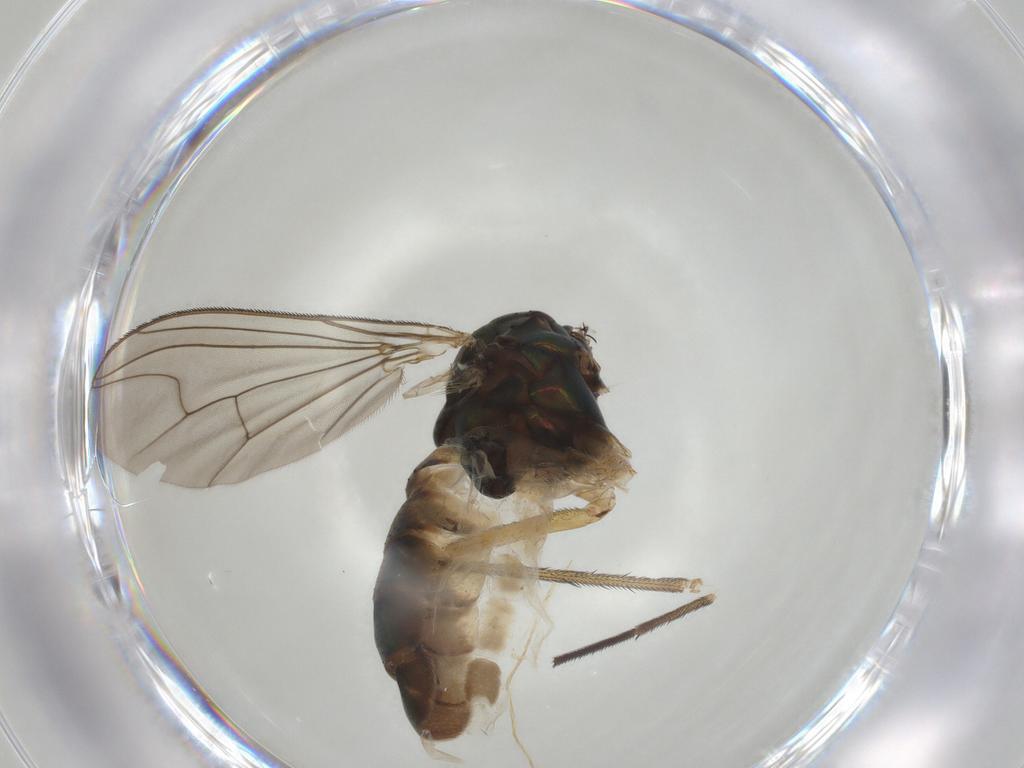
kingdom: Animalia
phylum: Arthropoda
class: Insecta
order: Diptera
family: Dolichopodidae
